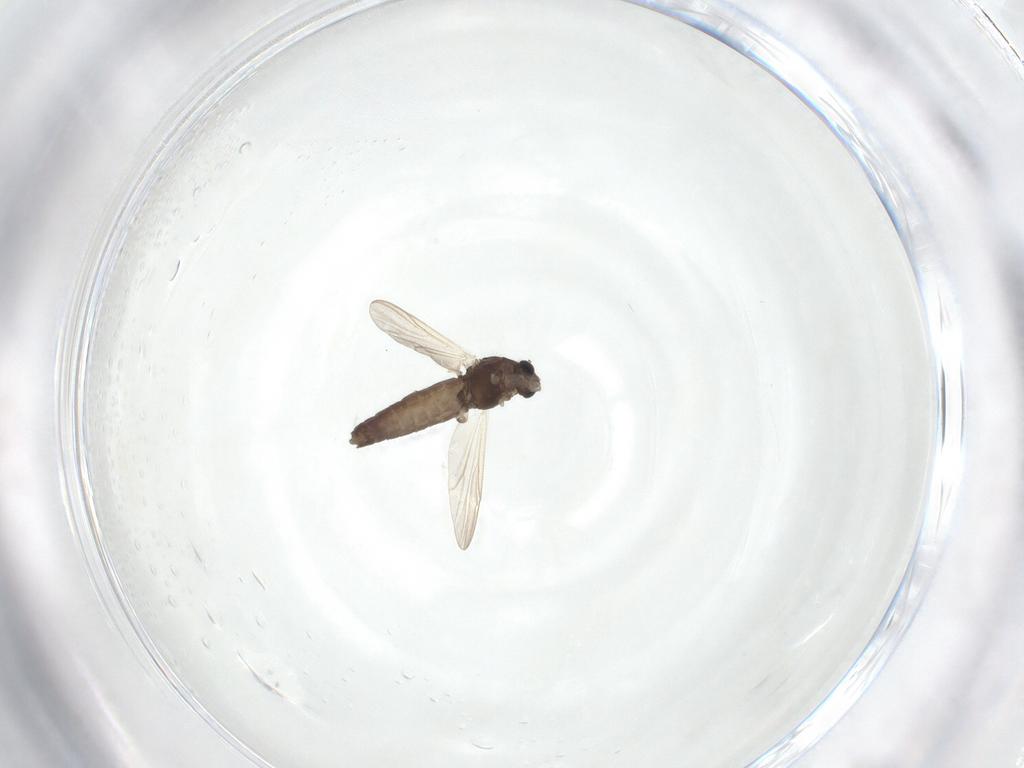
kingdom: Animalia
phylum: Arthropoda
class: Insecta
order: Diptera
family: Chironomidae
